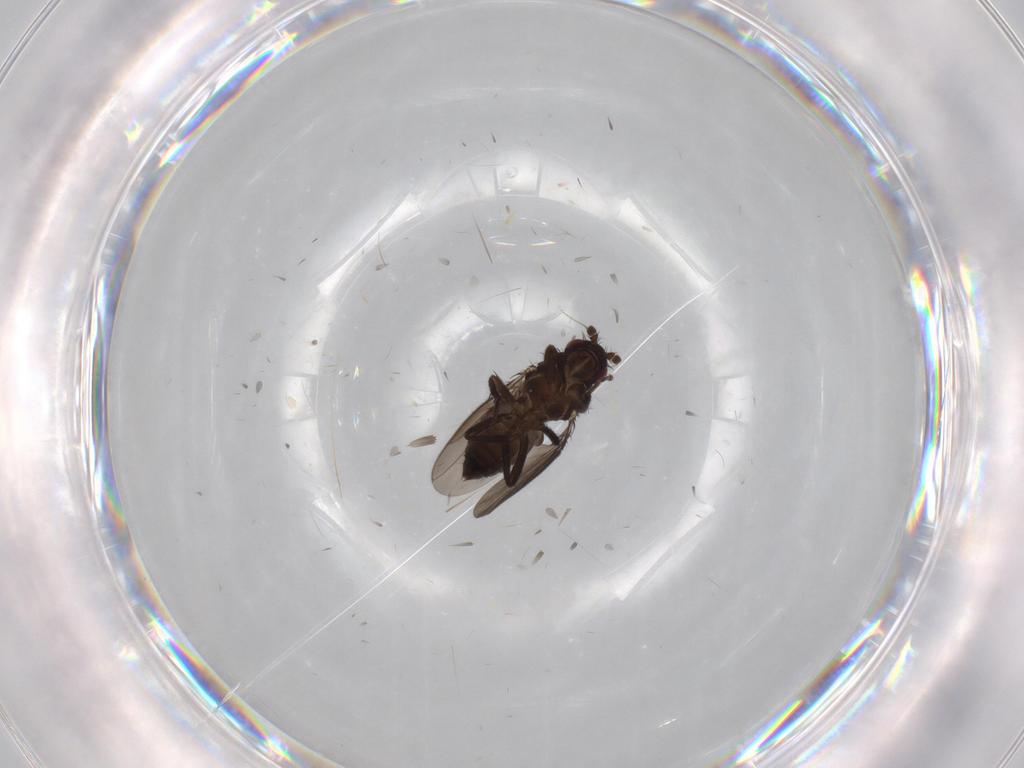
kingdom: Animalia
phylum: Arthropoda
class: Insecta
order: Diptera
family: Sphaeroceridae
